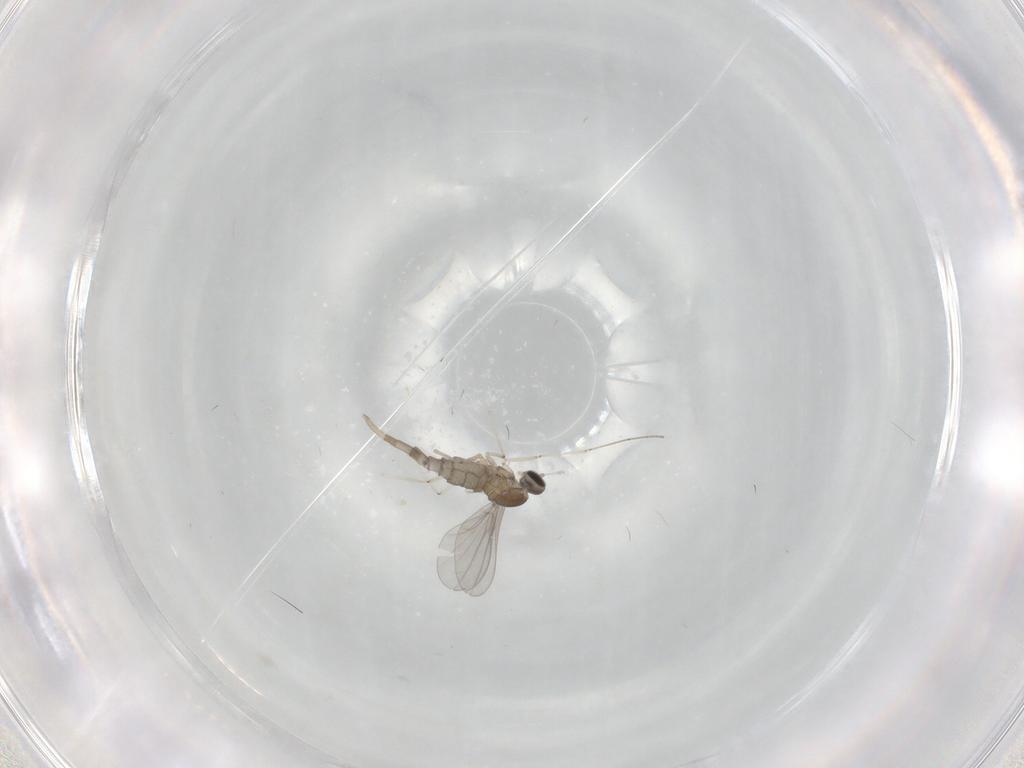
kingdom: Animalia
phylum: Arthropoda
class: Insecta
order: Diptera
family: Cecidomyiidae
